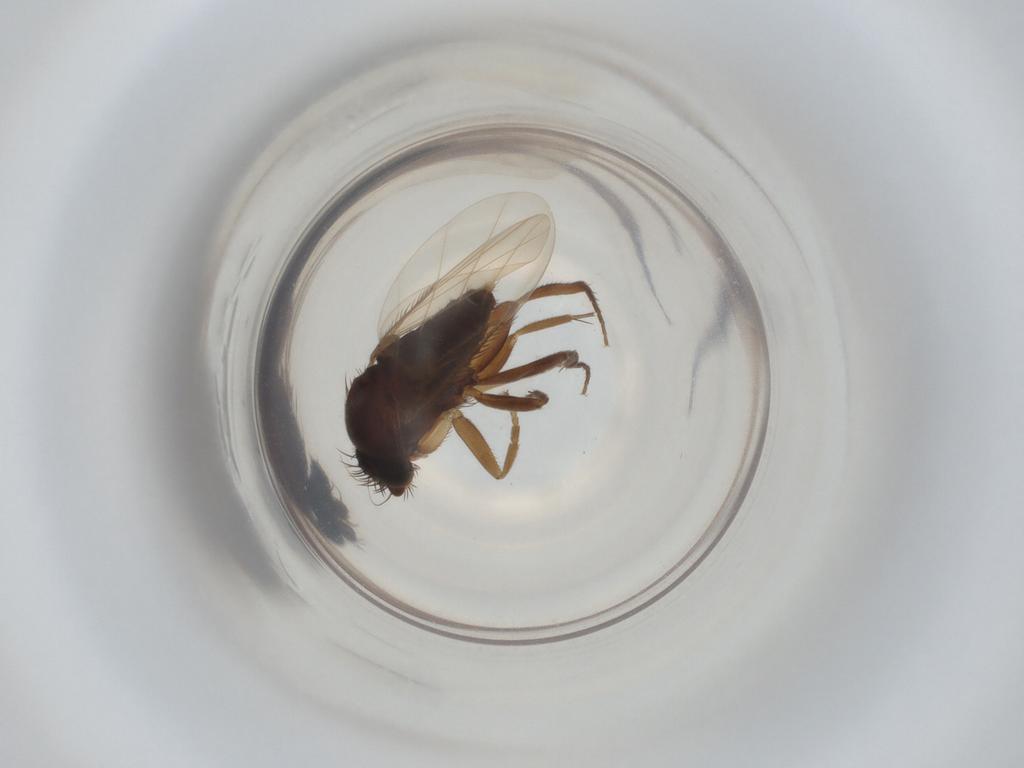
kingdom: Animalia
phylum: Arthropoda
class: Insecta
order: Diptera
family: Phoridae
